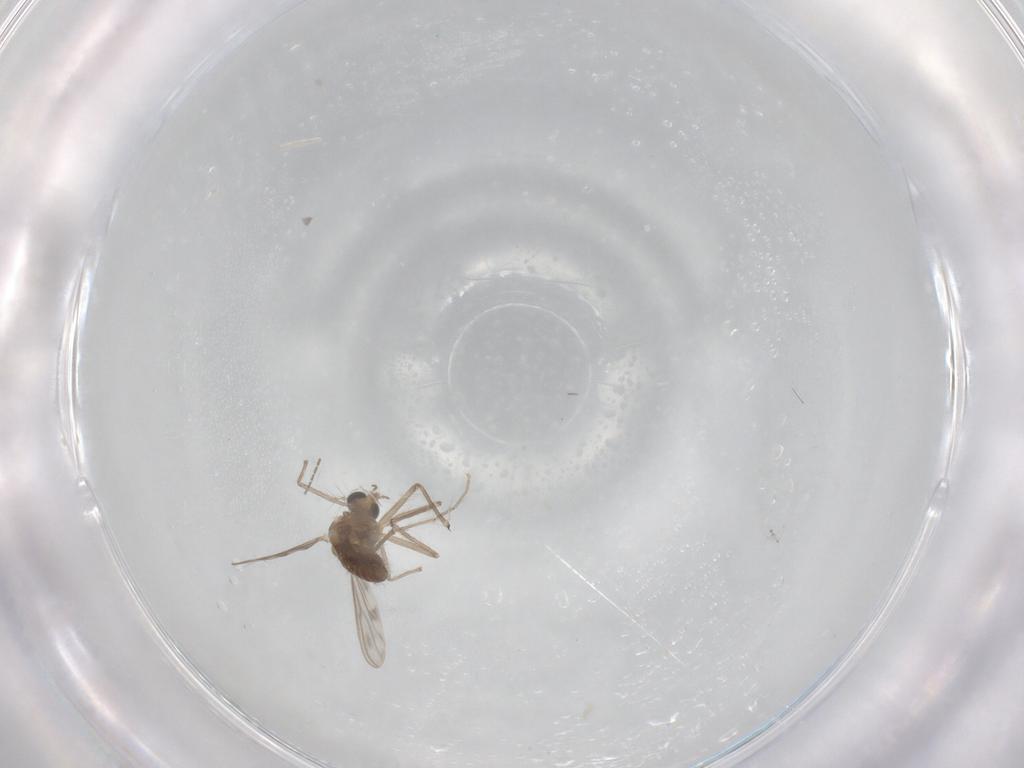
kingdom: Animalia
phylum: Arthropoda
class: Insecta
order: Diptera
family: Chironomidae
